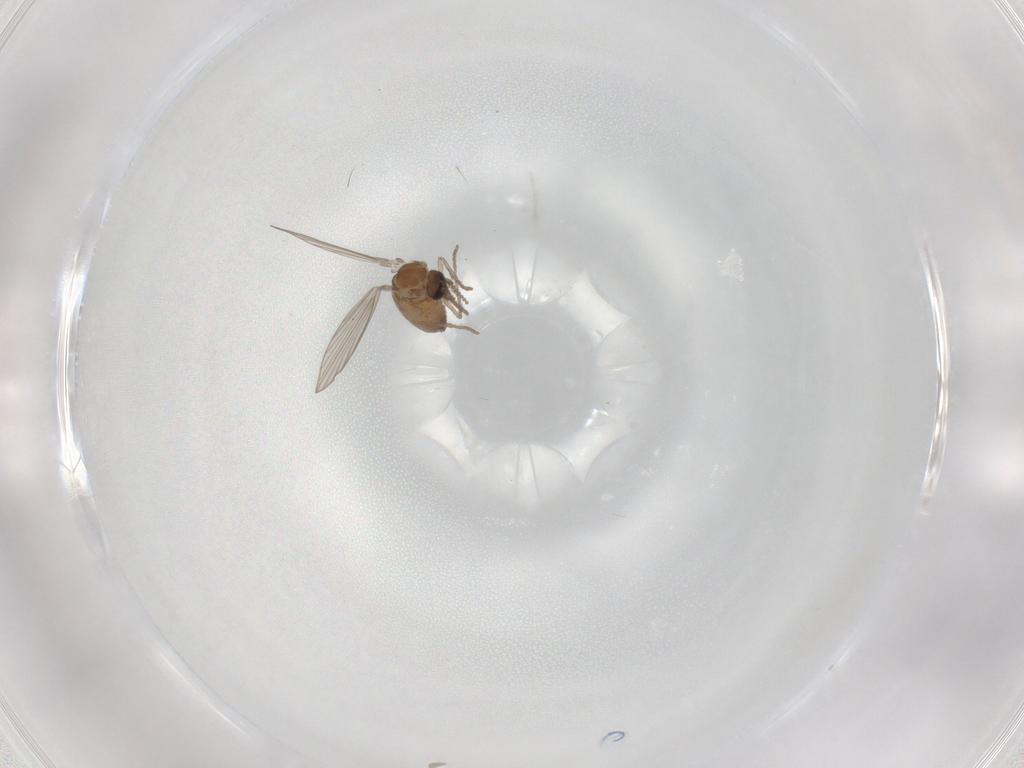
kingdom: Animalia
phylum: Arthropoda
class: Insecta
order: Diptera
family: Psychodidae
